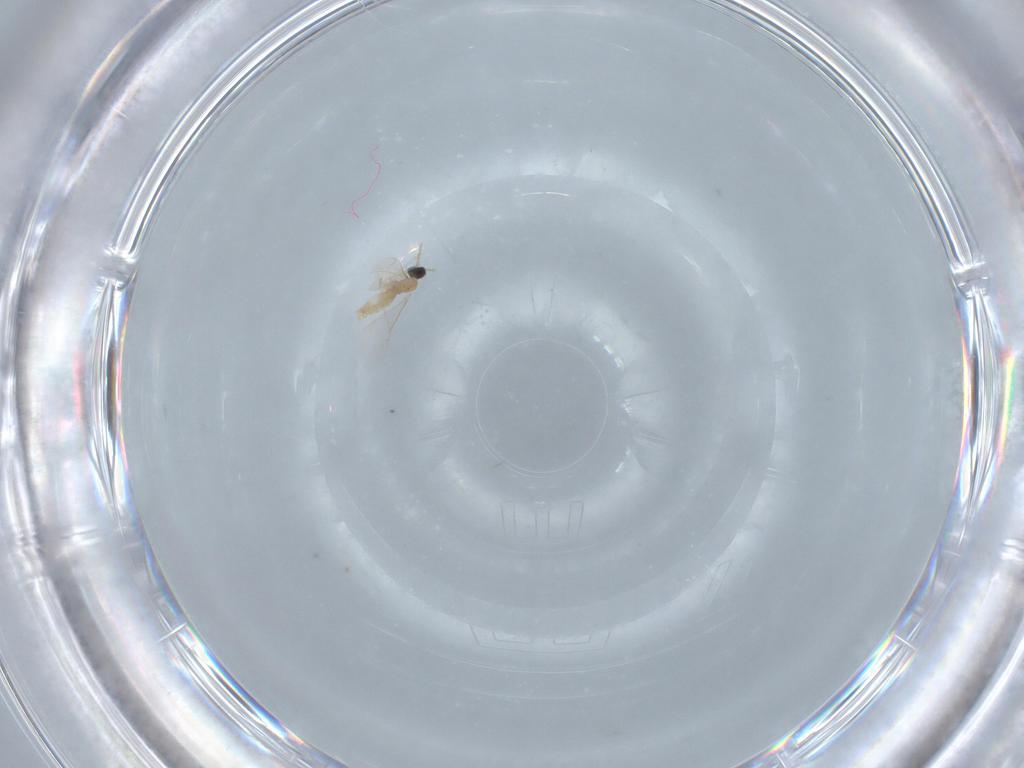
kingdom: Animalia
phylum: Arthropoda
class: Insecta
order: Diptera
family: Cecidomyiidae
